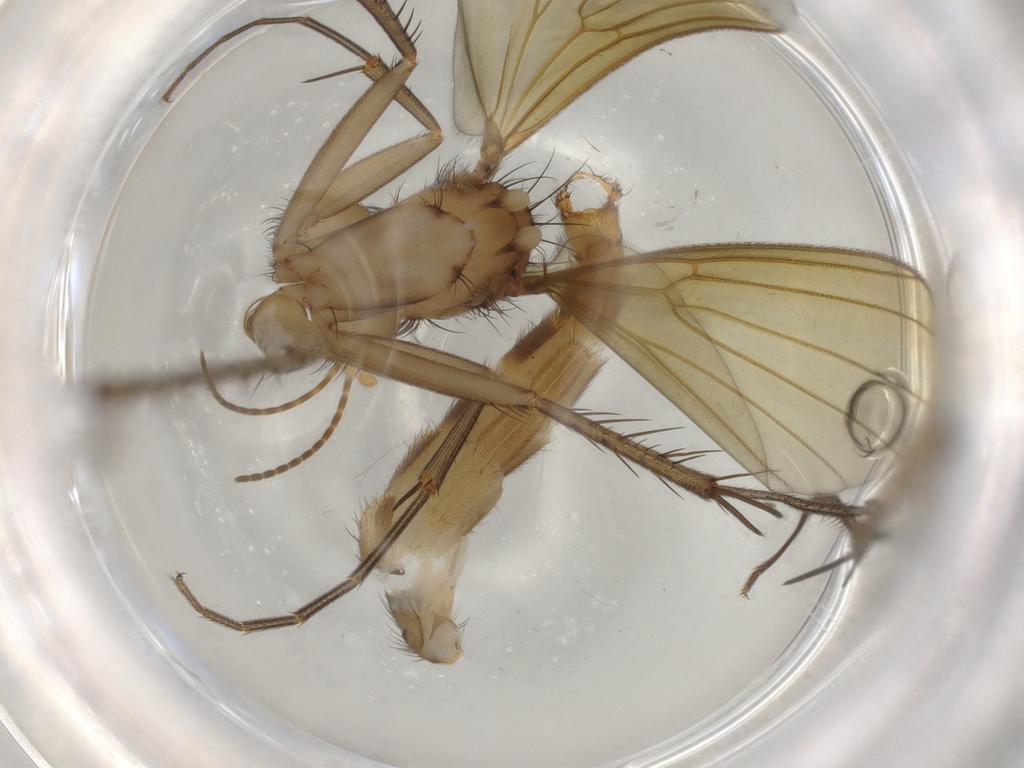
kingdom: Animalia
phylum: Arthropoda
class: Insecta
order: Diptera
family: Mycetophilidae
